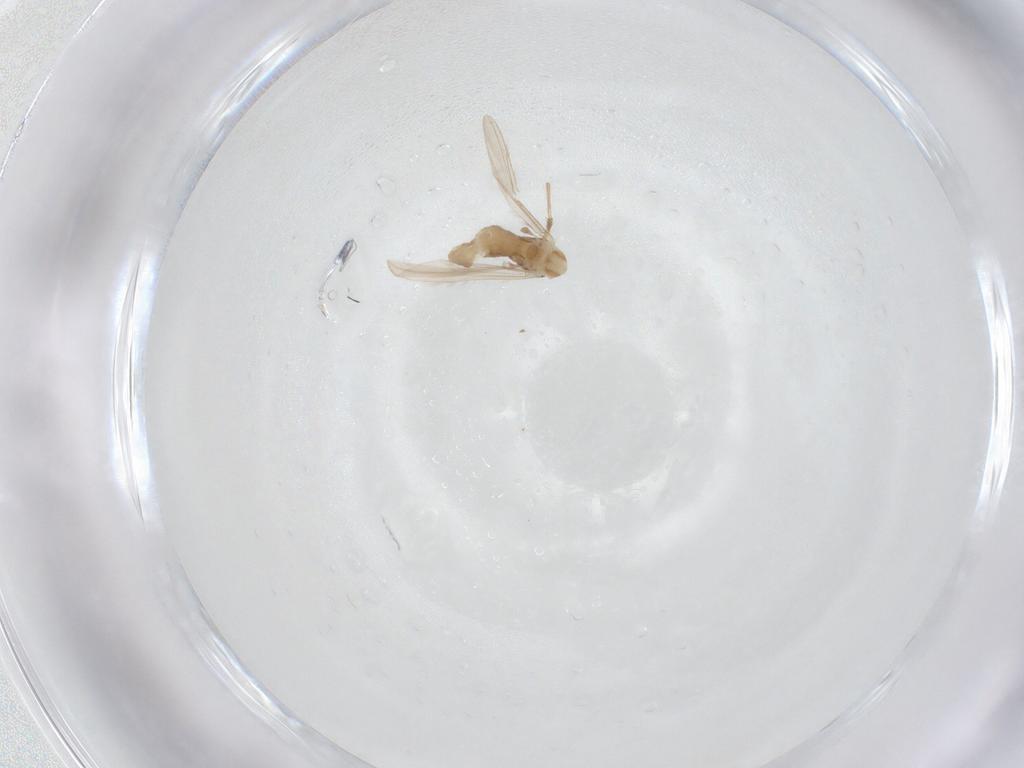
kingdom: Animalia
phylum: Arthropoda
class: Insecta
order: Diptera
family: Chironomidae
